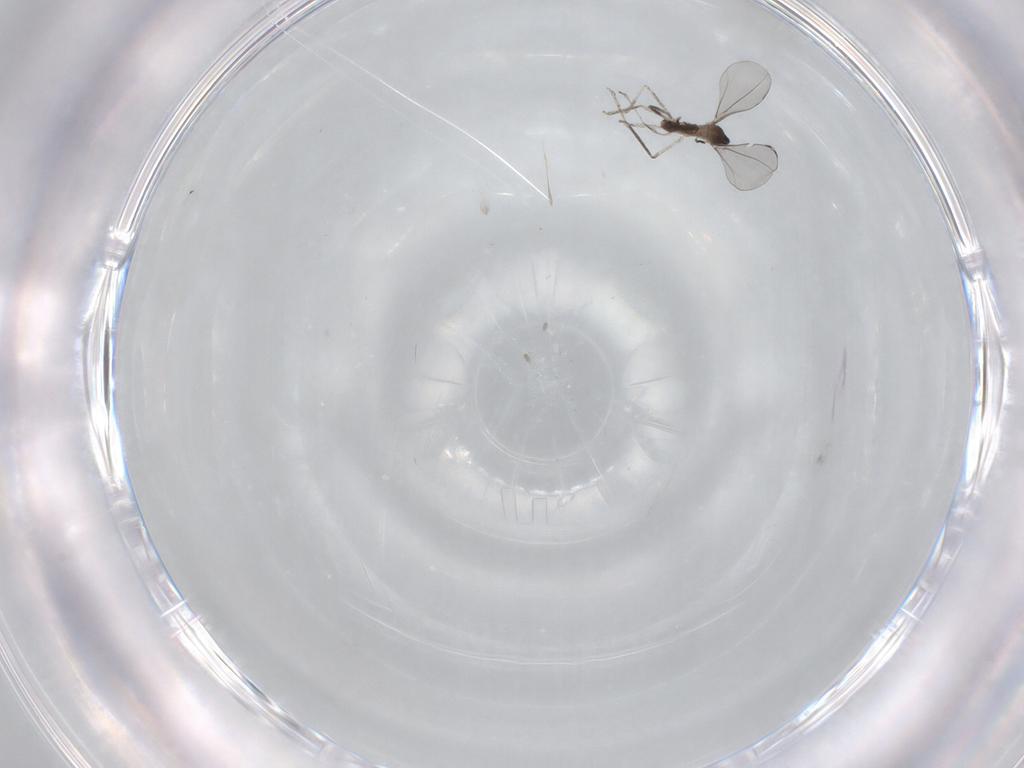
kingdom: Animalia
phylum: Arthropoda
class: Insecta
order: Diptera
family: Cecidomyiidae
